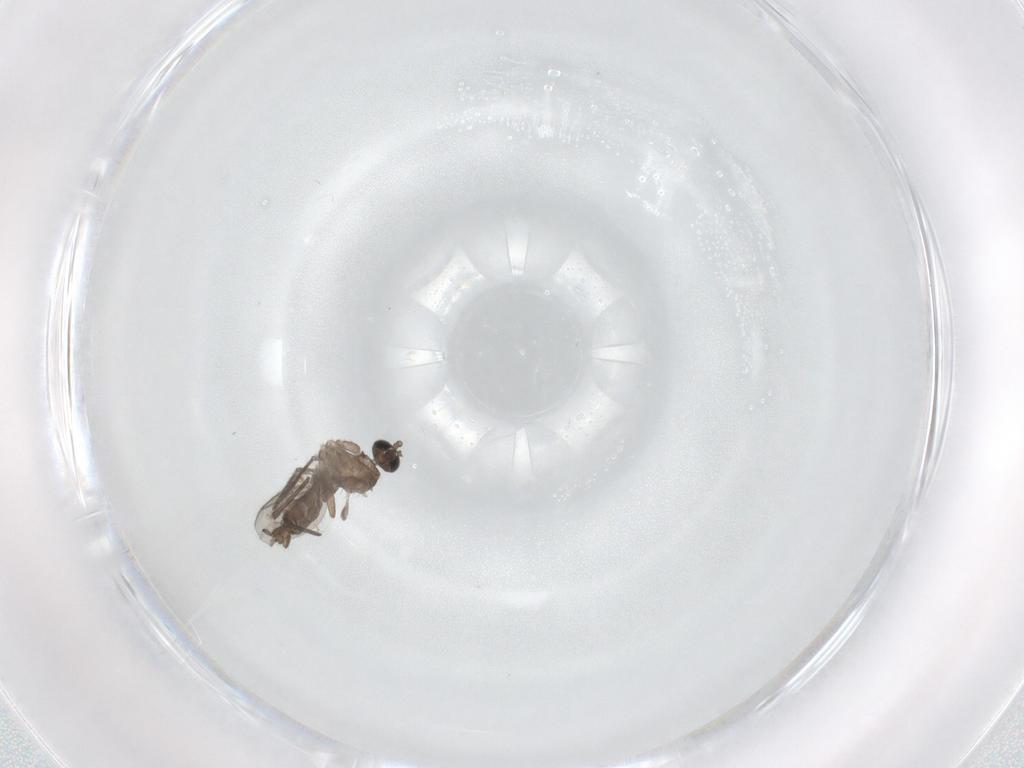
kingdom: Animalia
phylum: Arthropoda
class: Insecta
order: Diptera
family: Sciaridae
